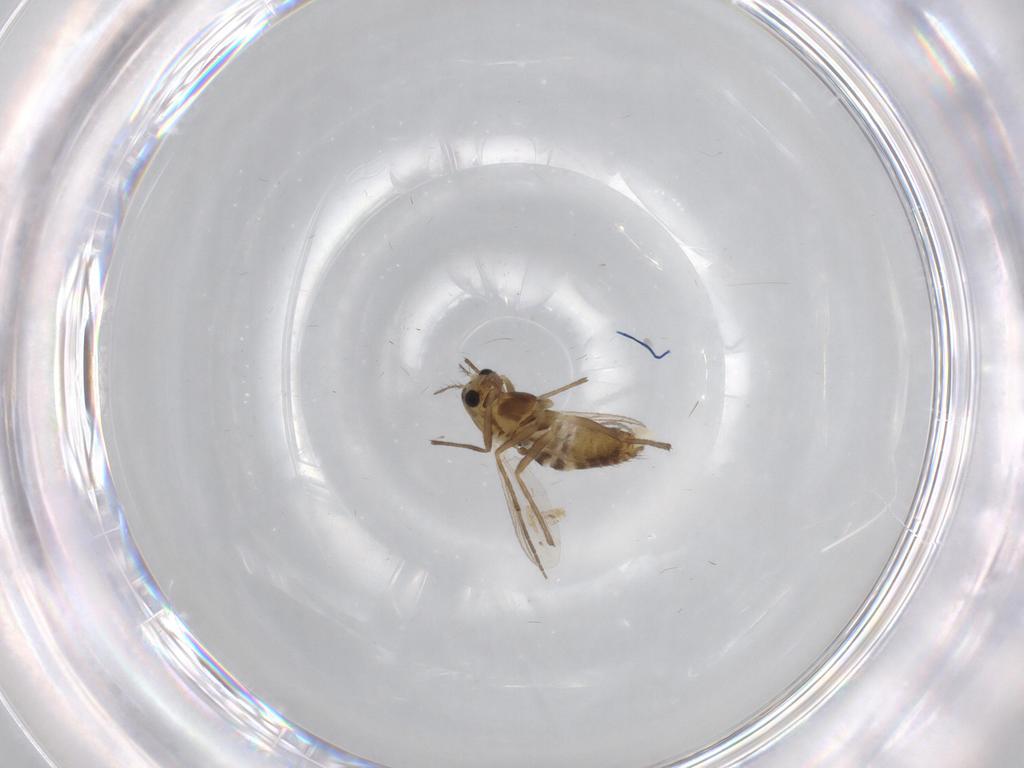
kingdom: Animalia
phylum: Arthropoda
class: Insecta
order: Diptera
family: Chironomidae
